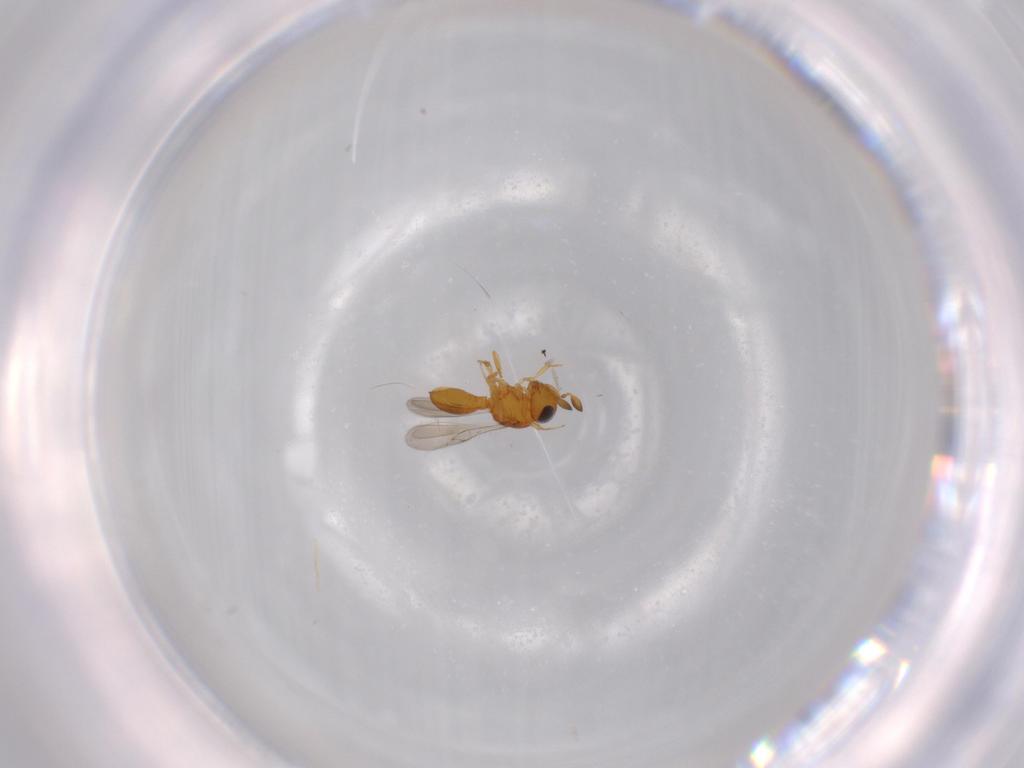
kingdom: Animalia
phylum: Arthropoda
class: Insecta
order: Hymenoptera
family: Scelionidae
